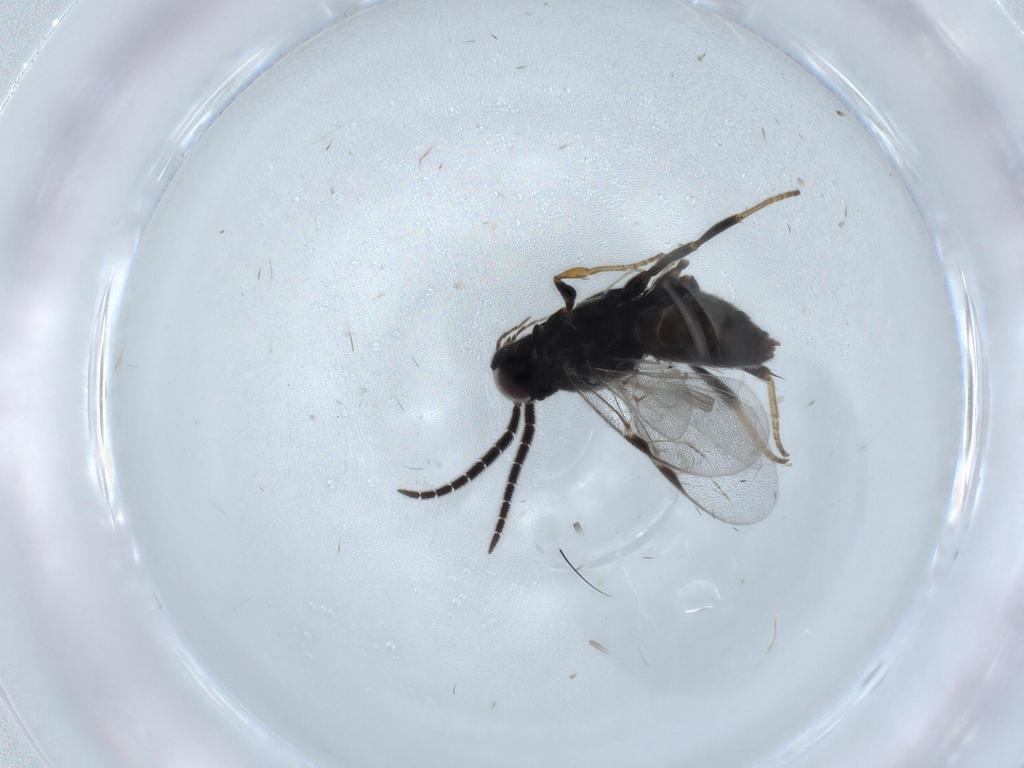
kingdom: Animalia
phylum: Arthropoda
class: Insecta
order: Hymenoptera
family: Dryinidae
